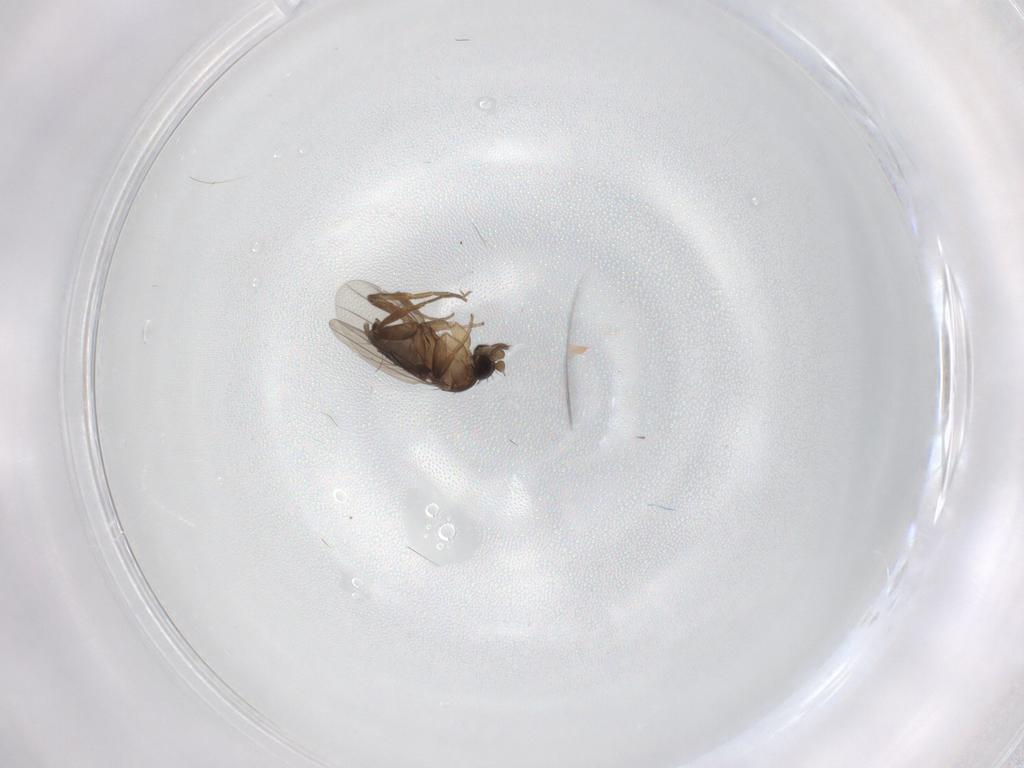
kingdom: Animalia
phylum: Arthropoda
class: Insecta
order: Diptera
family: Phoridae
